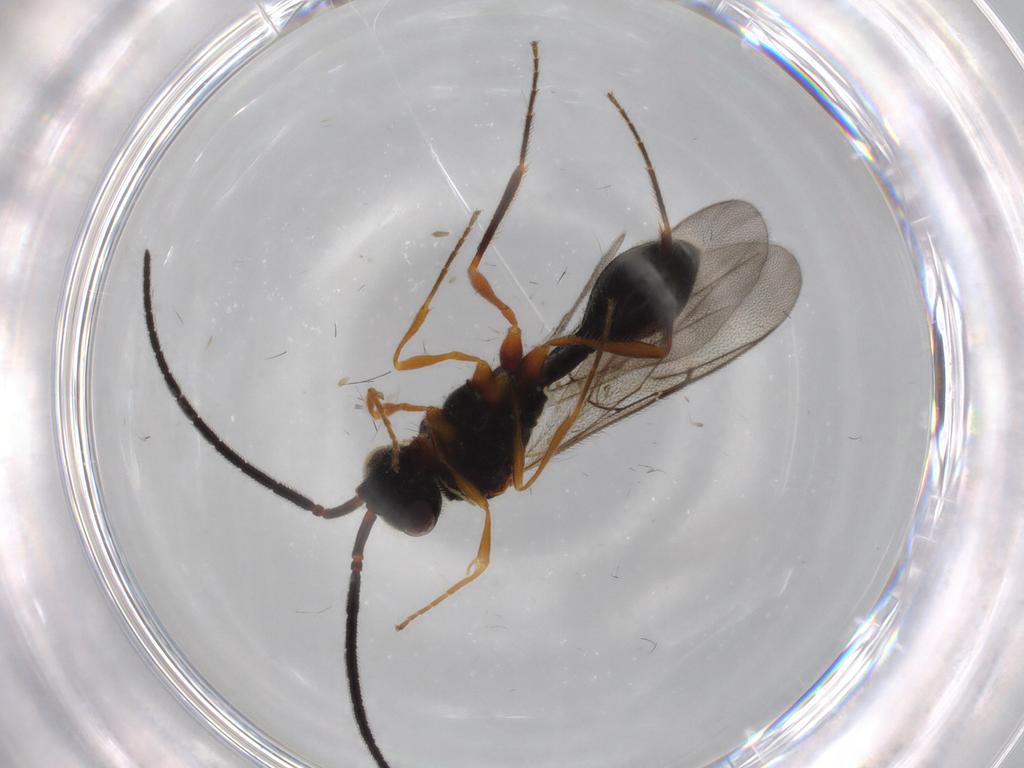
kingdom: Animalia
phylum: Arthropoda
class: Insecta
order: Hymenoptera
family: Diapriidae
